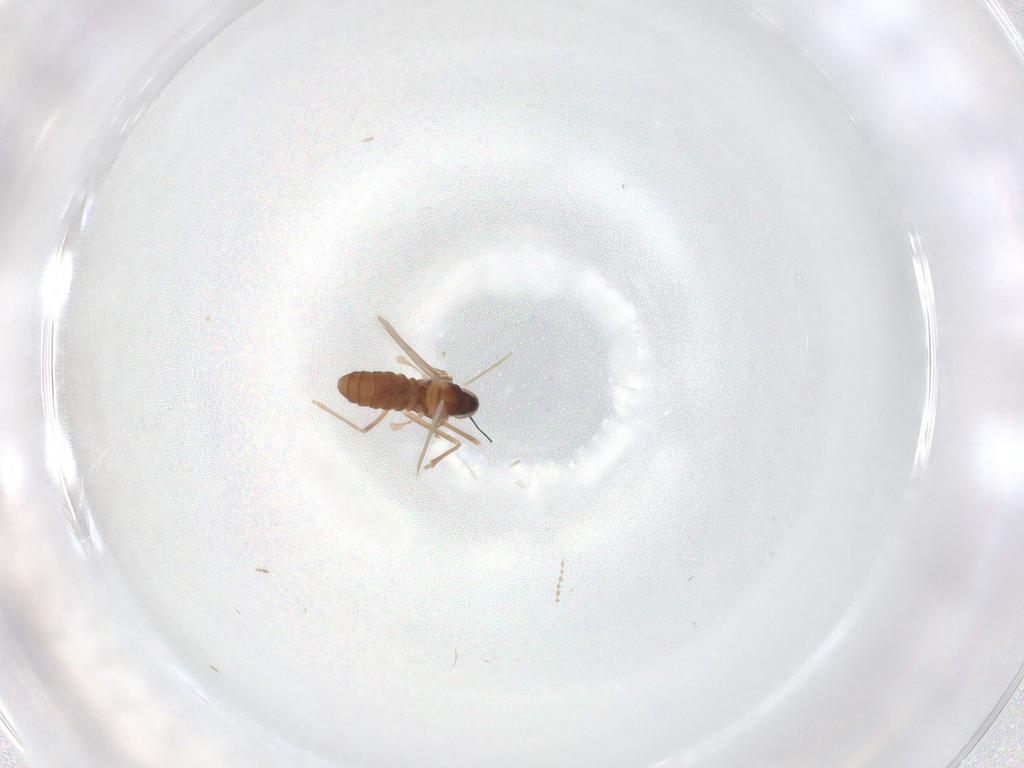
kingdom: Animalia
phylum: Arthropoda
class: Insecta
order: Diptera
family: Cecidomyiidae
